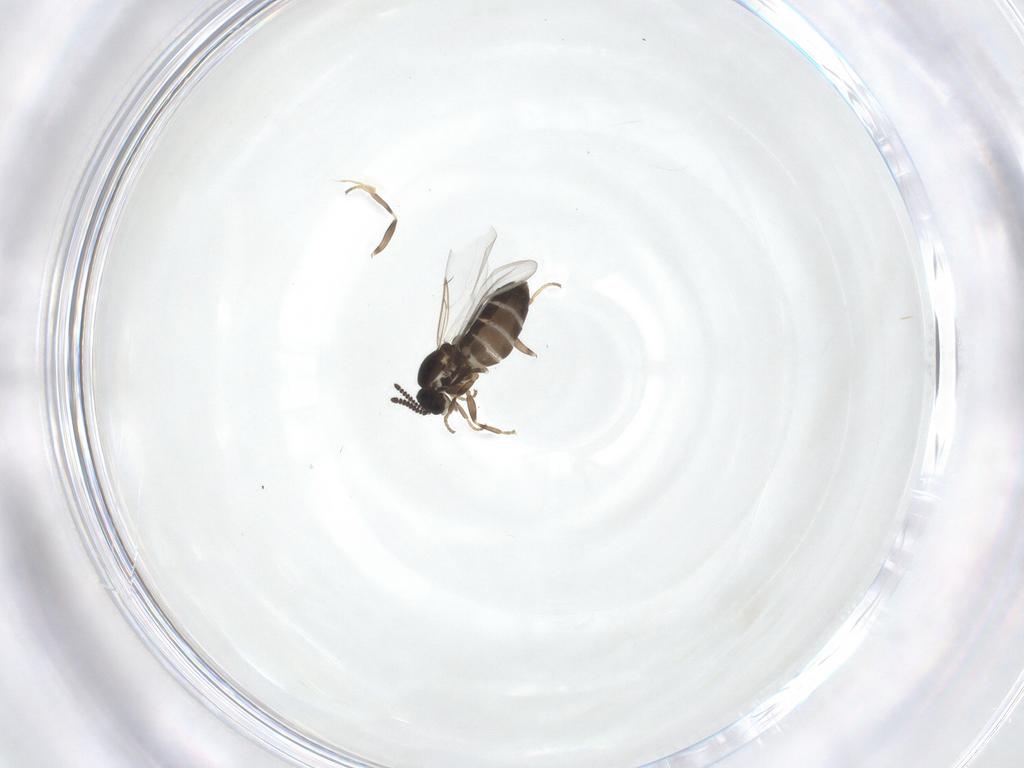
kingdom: Animalia
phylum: Arthropoda
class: Insecta
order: Diptera
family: Scatopsidae
